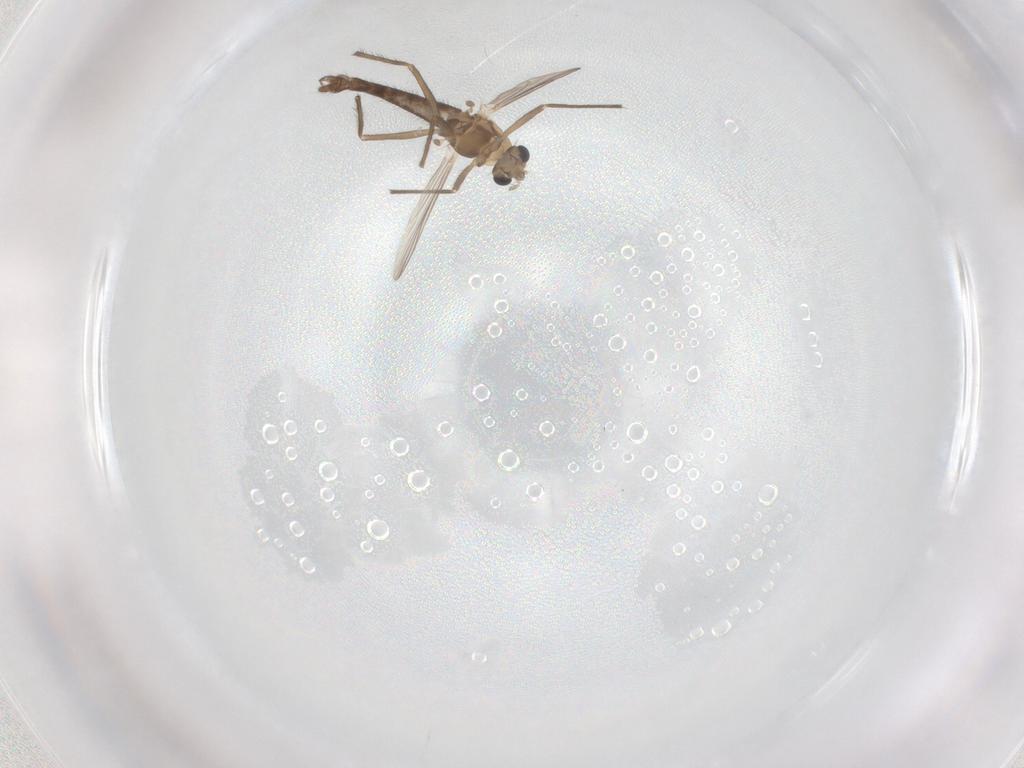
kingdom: Animalia
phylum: Arthropoda
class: Insecta
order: Diptera
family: Chironomidae
